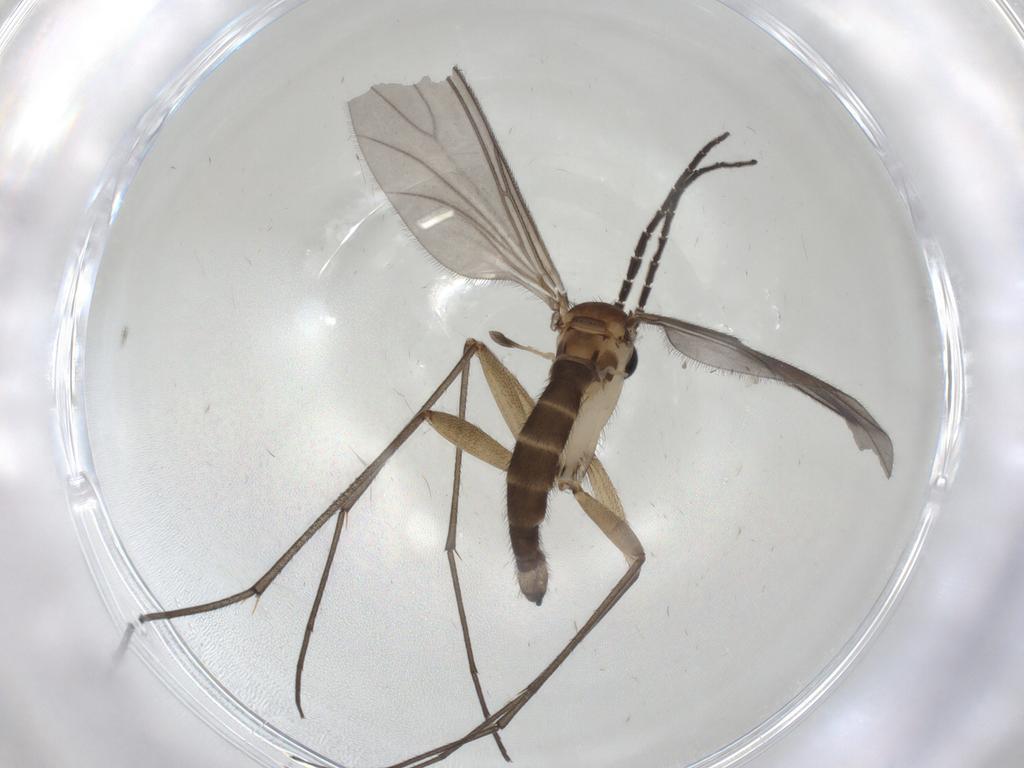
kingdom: Animalia
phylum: Arthropoda
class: Insecta
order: Diptera
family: Sciaridae
